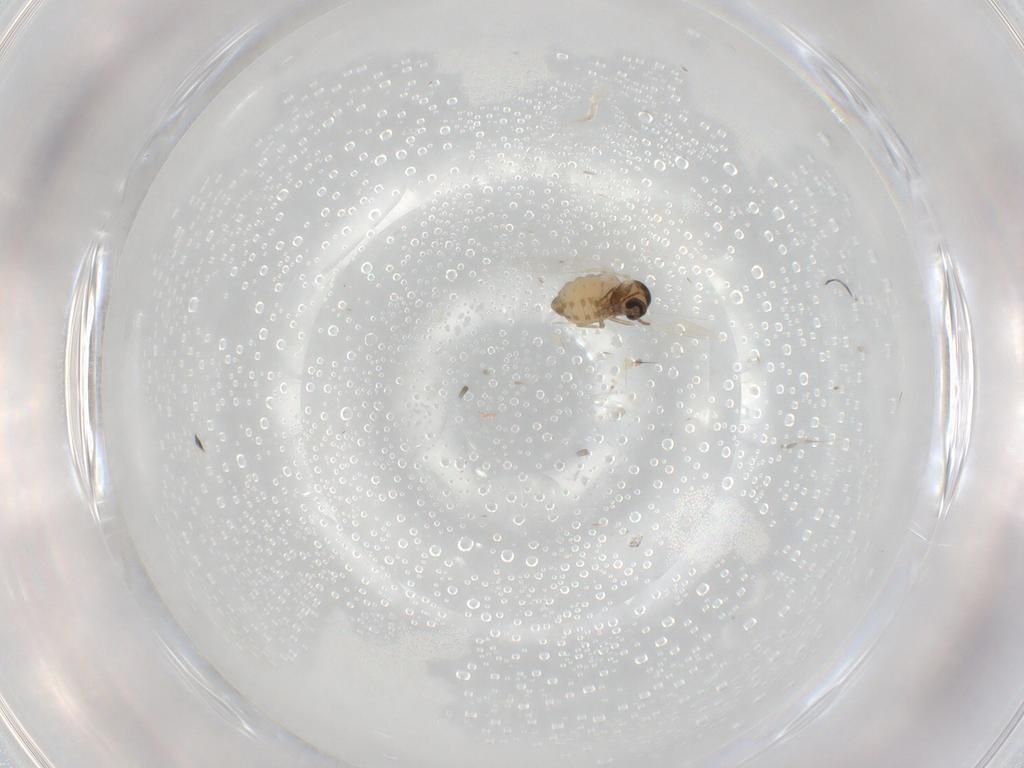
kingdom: Animalia
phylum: Arthropoda
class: Insecta
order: Diptera
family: Cecidomyiidae
